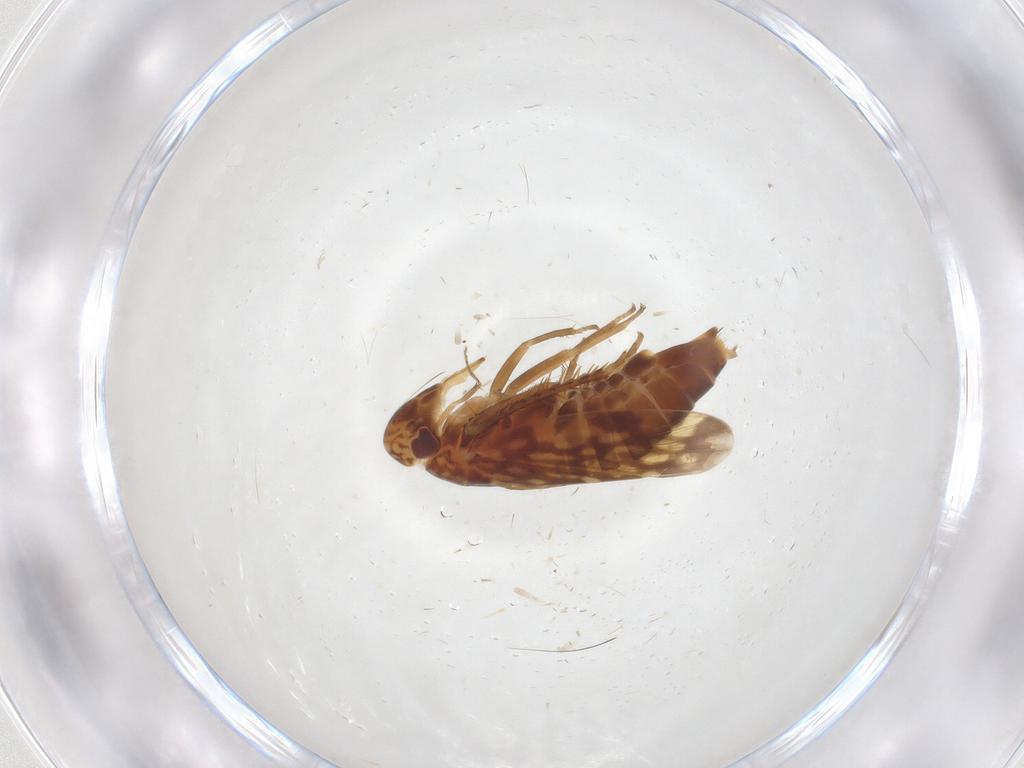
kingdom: Animalia
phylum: Arthropoda
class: Insecta
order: Hemiptera
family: Cicadellidae
